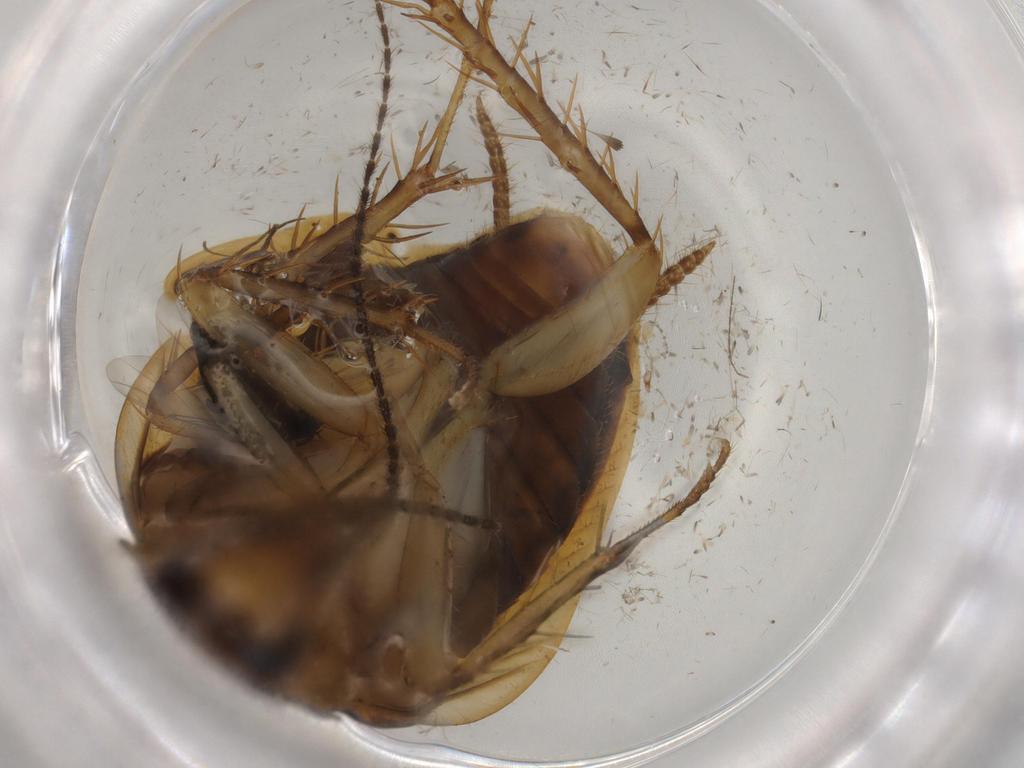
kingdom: Animalia
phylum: Arthropoda
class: Insecta
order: Blattodea
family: Ectobiidae
